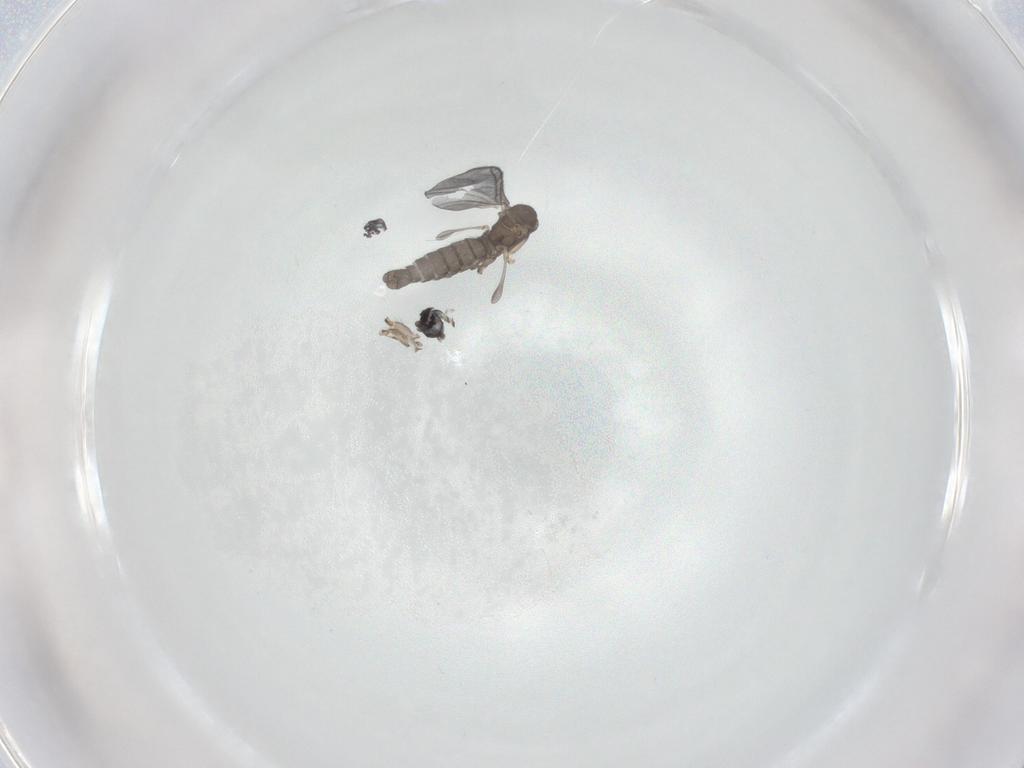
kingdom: Animalia
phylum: Arthropoda
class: Insecta
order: Diptera
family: Sciaridae
